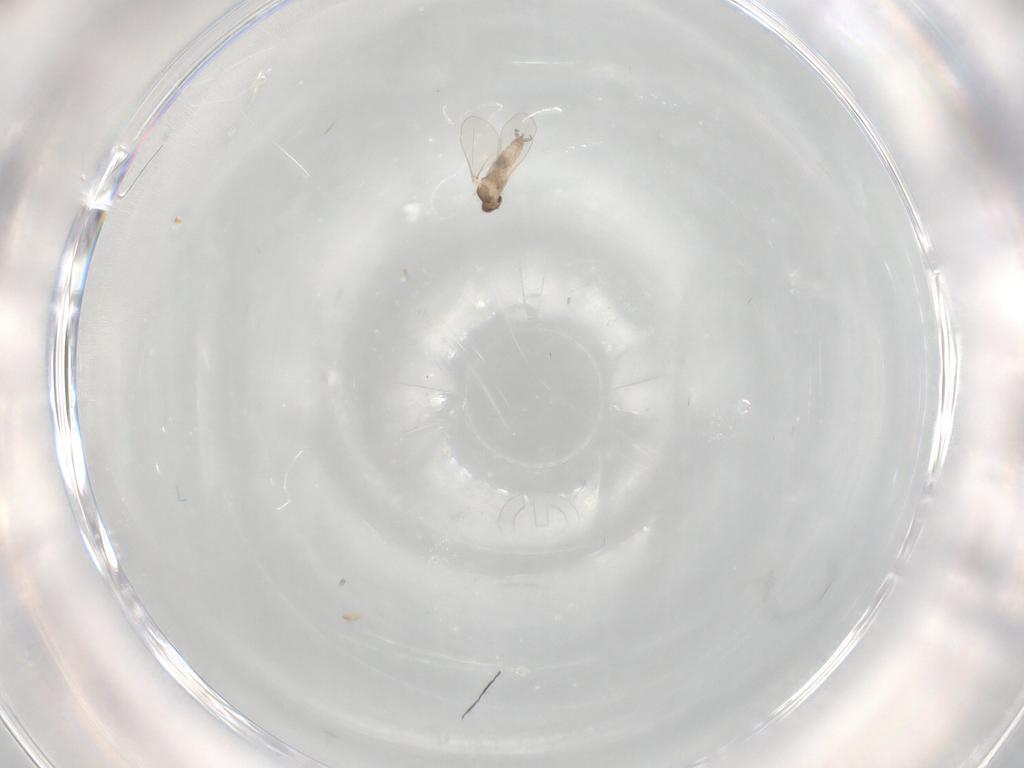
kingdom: Animalia
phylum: Arthropoda
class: Insecta
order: Diptera
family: Cecidomyiidae
